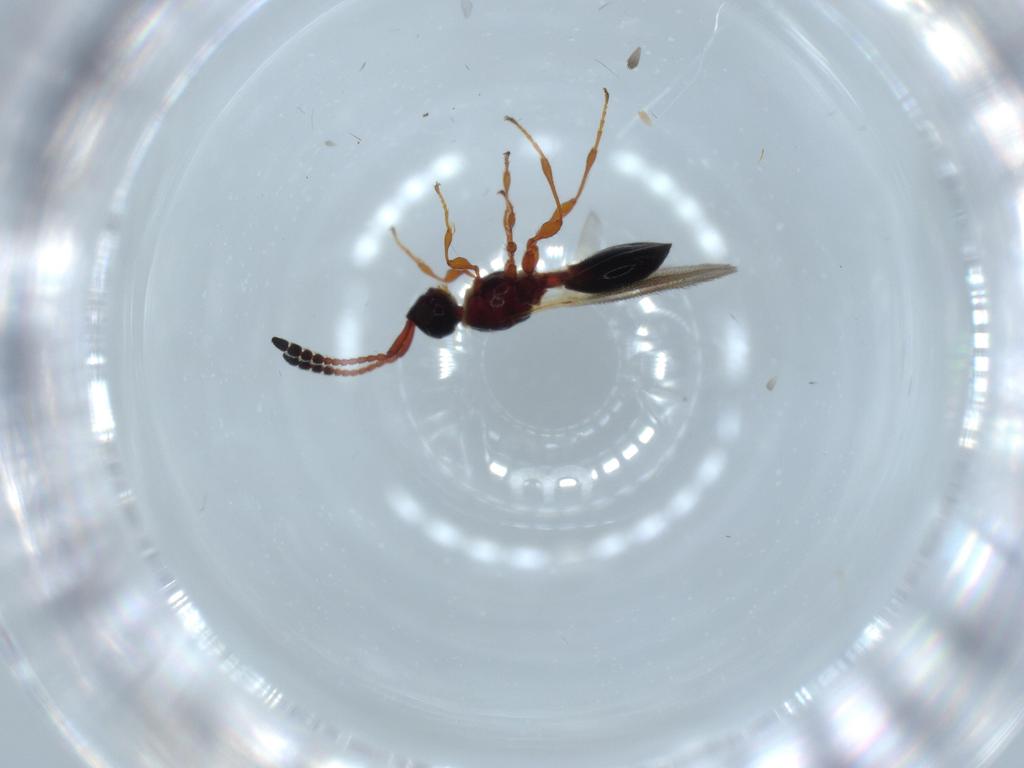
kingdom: Animalia
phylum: Arthropoda
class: Insecta
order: Hymenoptera
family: Diapriidae
